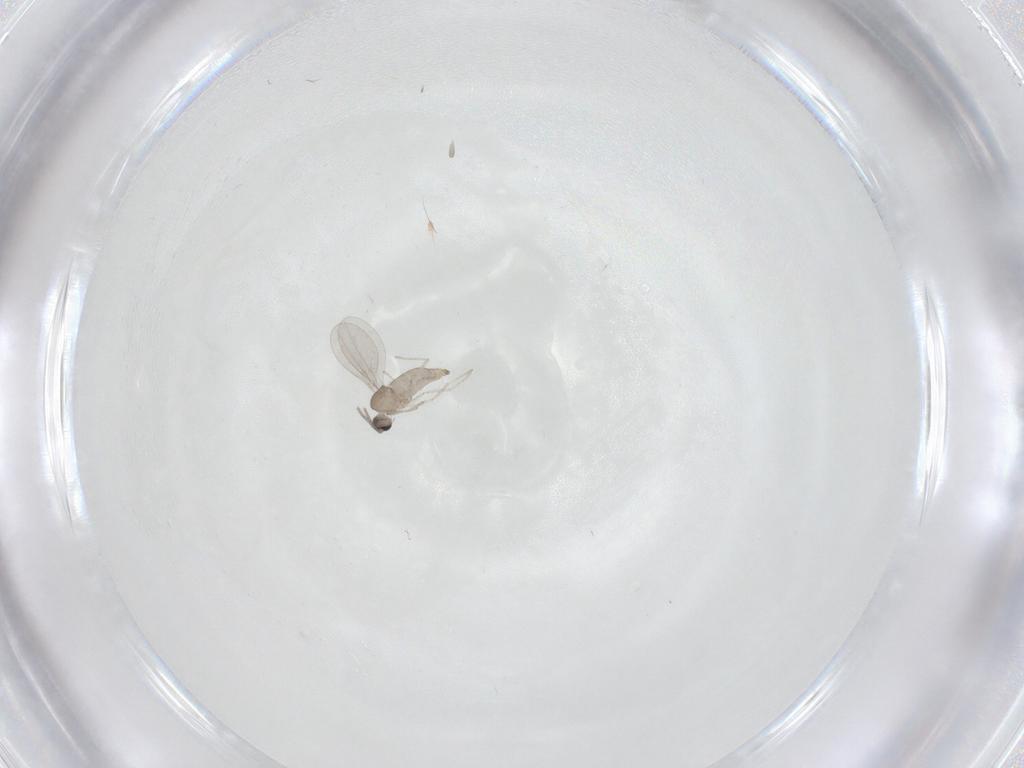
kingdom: Animalia
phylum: Arthropoda
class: Insecta
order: Diptera
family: Cecidomyiidae
